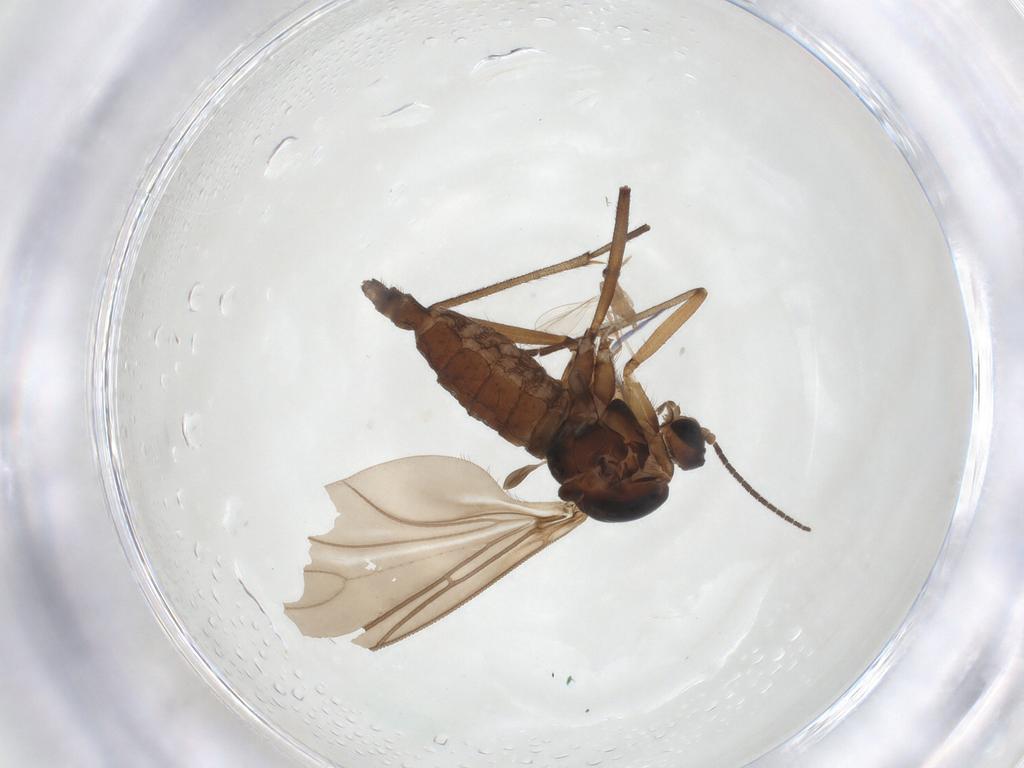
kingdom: Animalia
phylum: Arthropoda
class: Insecta
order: Diptera
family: Cecidomyiidae
